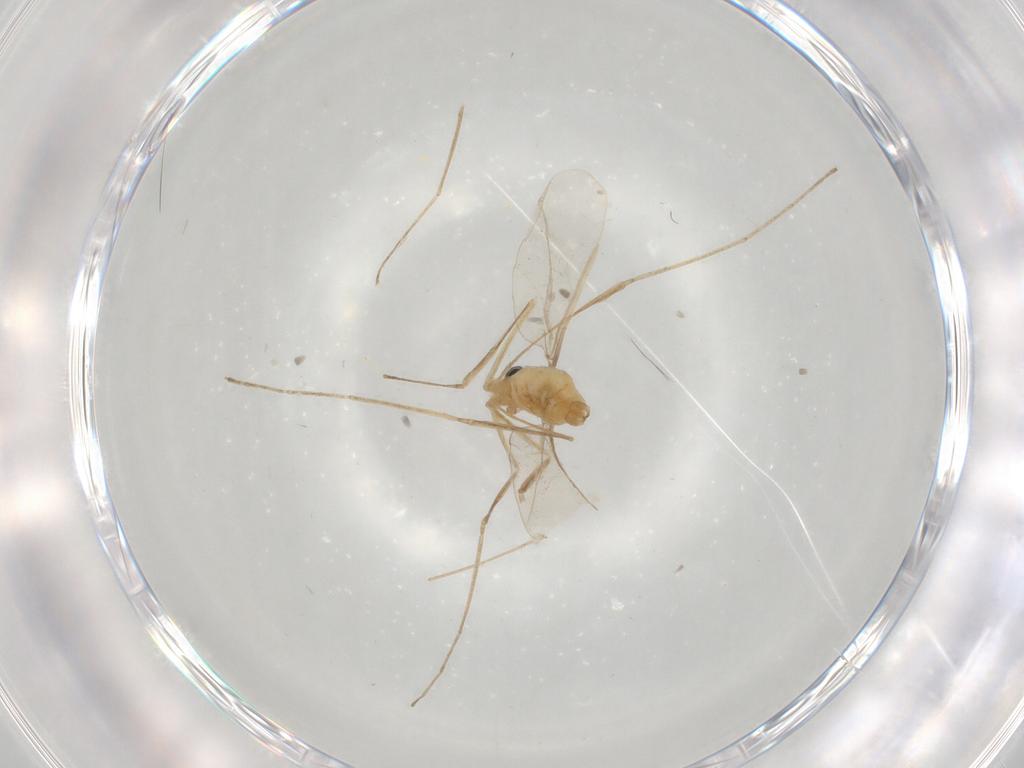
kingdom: Animalia
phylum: Arthropoda
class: Insecta
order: Diptera
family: Cecidomyiidae
